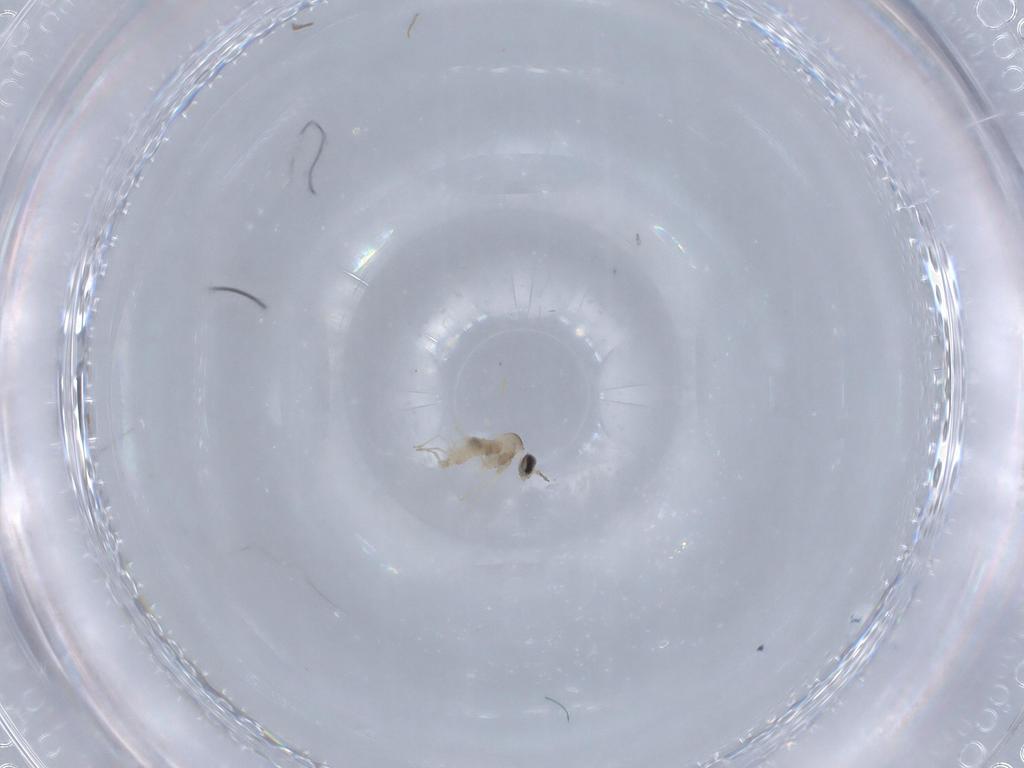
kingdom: Animalia
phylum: Arthropoda
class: Insecta
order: Diptera
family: Cecidomyiidae
